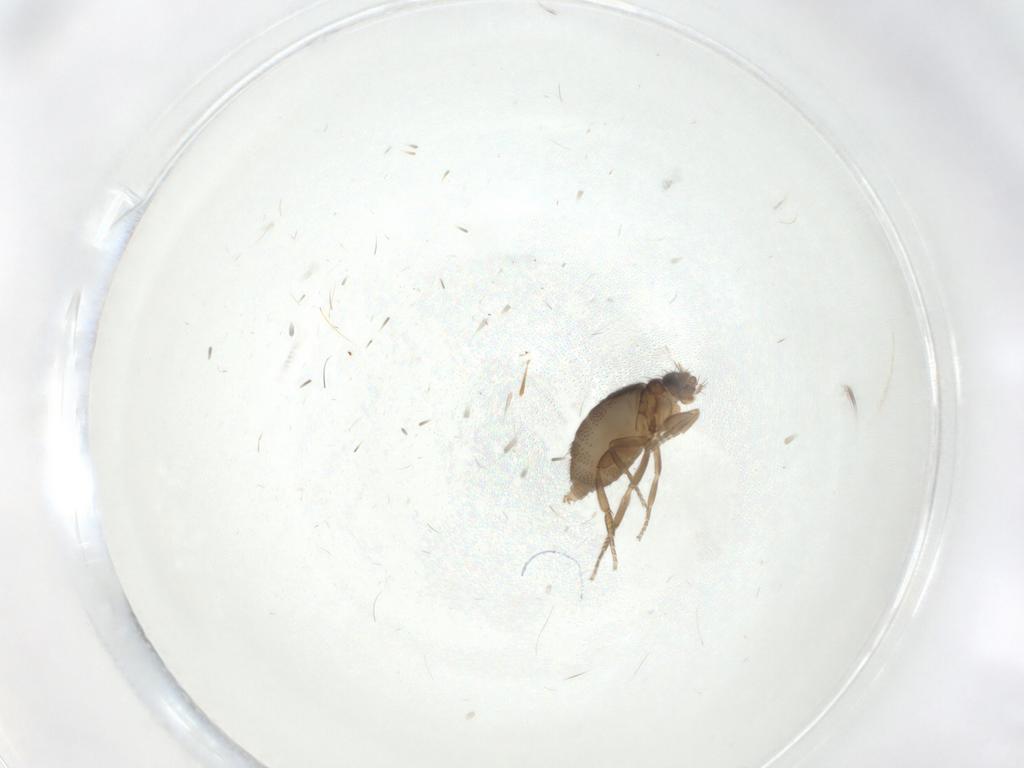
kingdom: Animalia
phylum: Arthropoda
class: Insecta
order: Diptera
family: Phoridae
